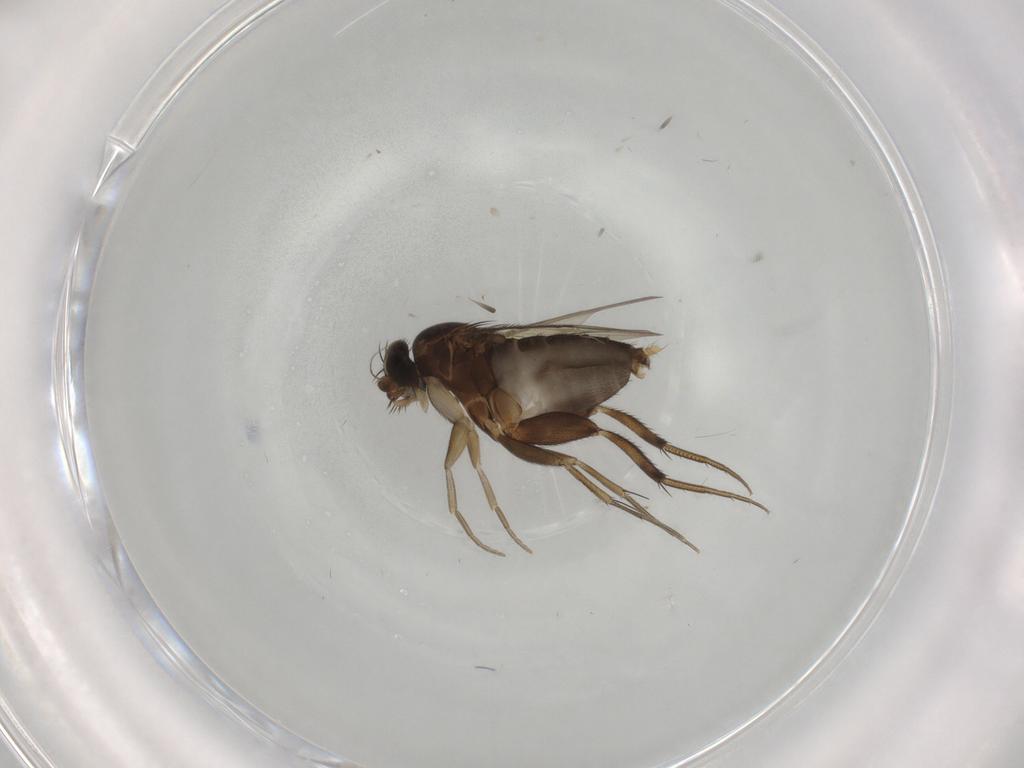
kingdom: Animalia
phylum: Arthropoda
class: Insecta
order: Diptera
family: Phoridae
